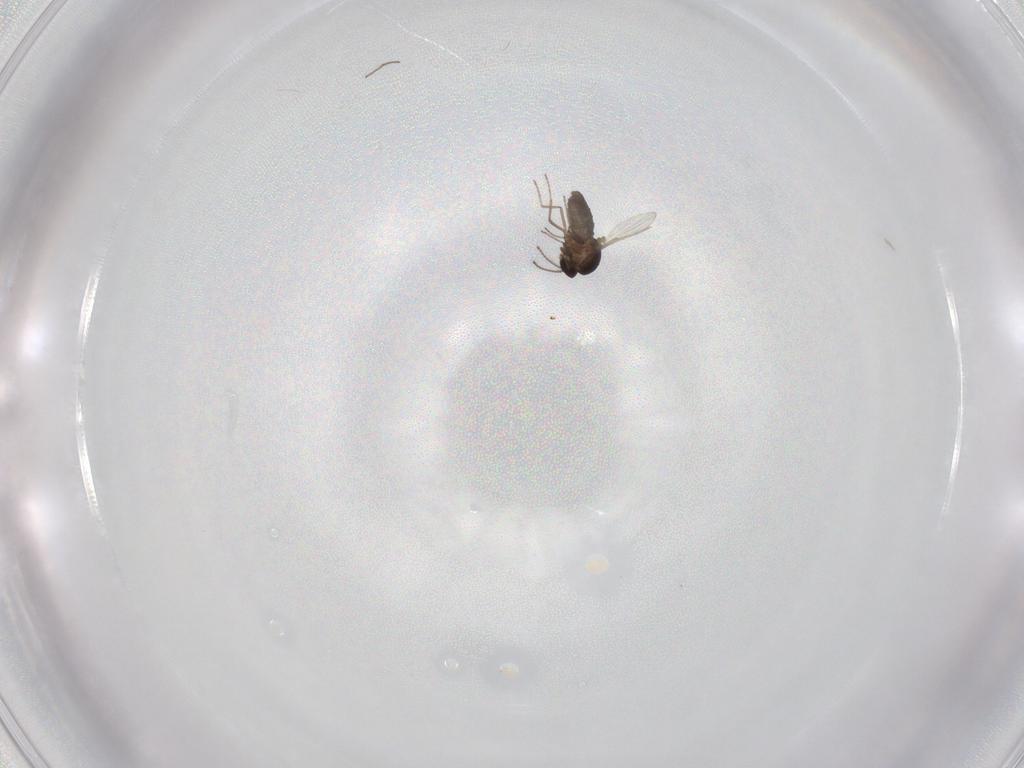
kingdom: Animalia
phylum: Arthropoda
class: Insecta
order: Diptera
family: Ceratopogonidae
